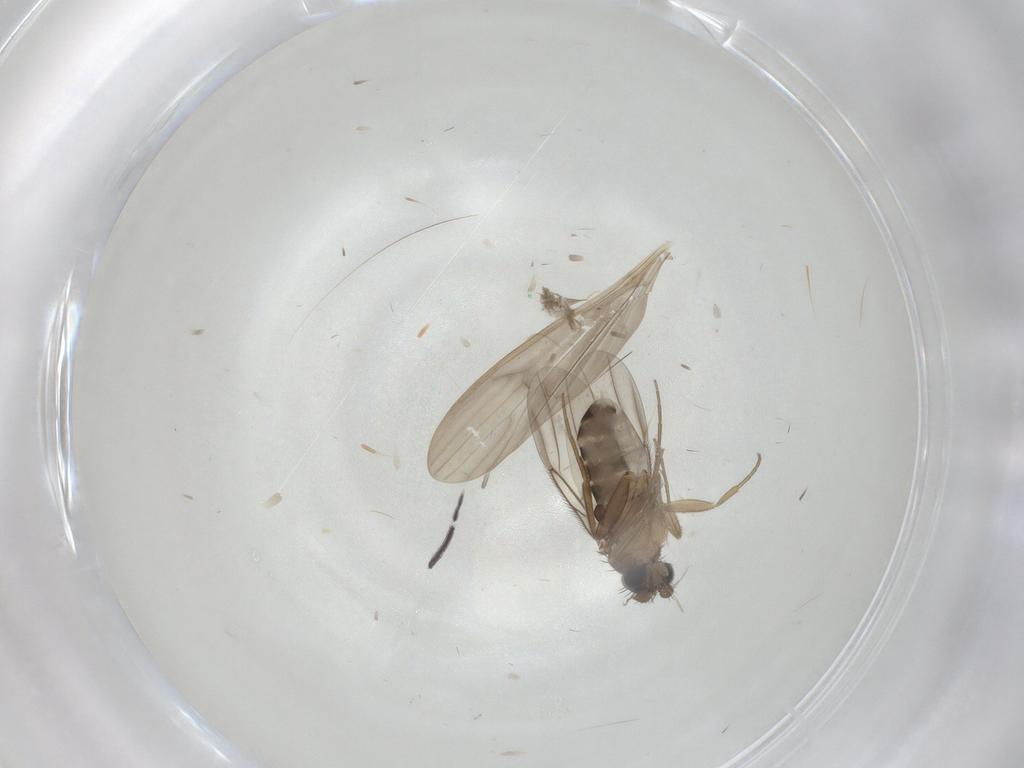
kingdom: Animalia
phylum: Arthropoda
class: Insecta
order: Diptera
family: Phoridae
